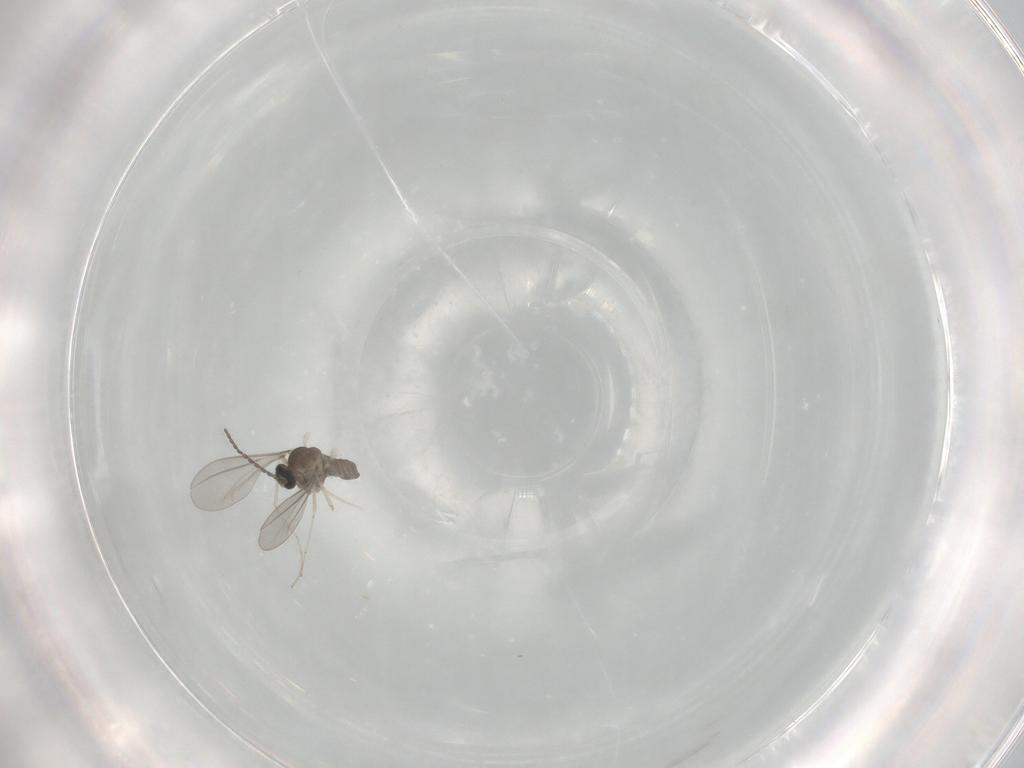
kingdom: Animalia
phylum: Arthropoda
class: Insecta
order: Diptera
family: Cecidomyiidae
